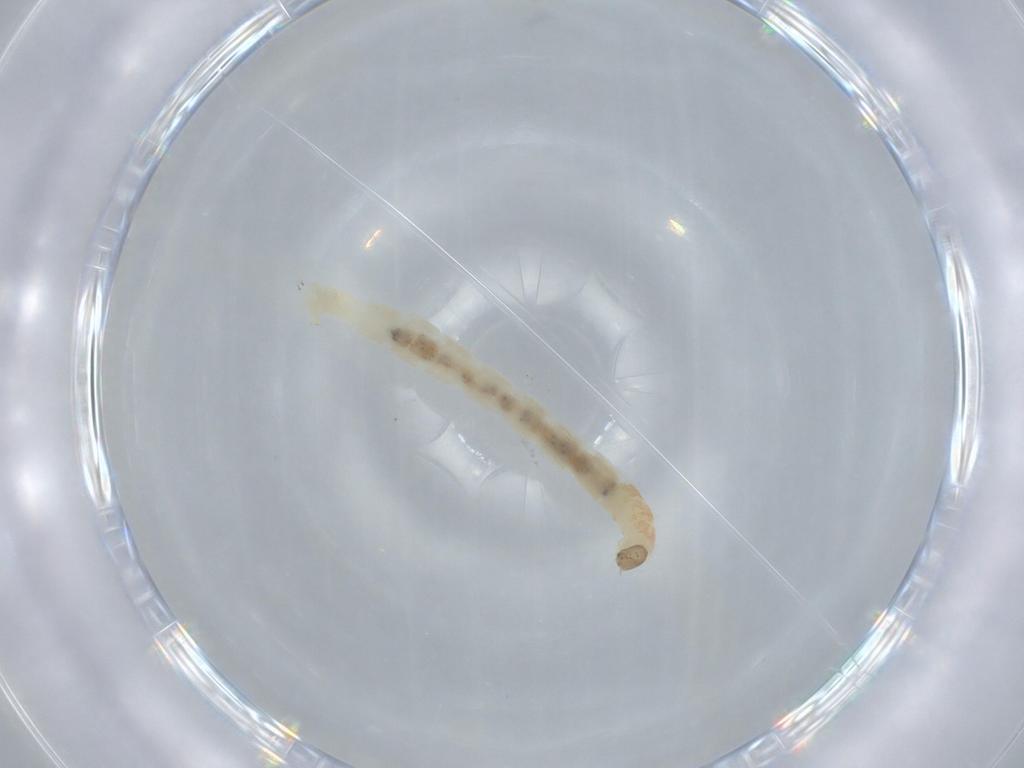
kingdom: Animalia
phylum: Arthropoda
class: Insecta
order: Diptera
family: Chironomidae
